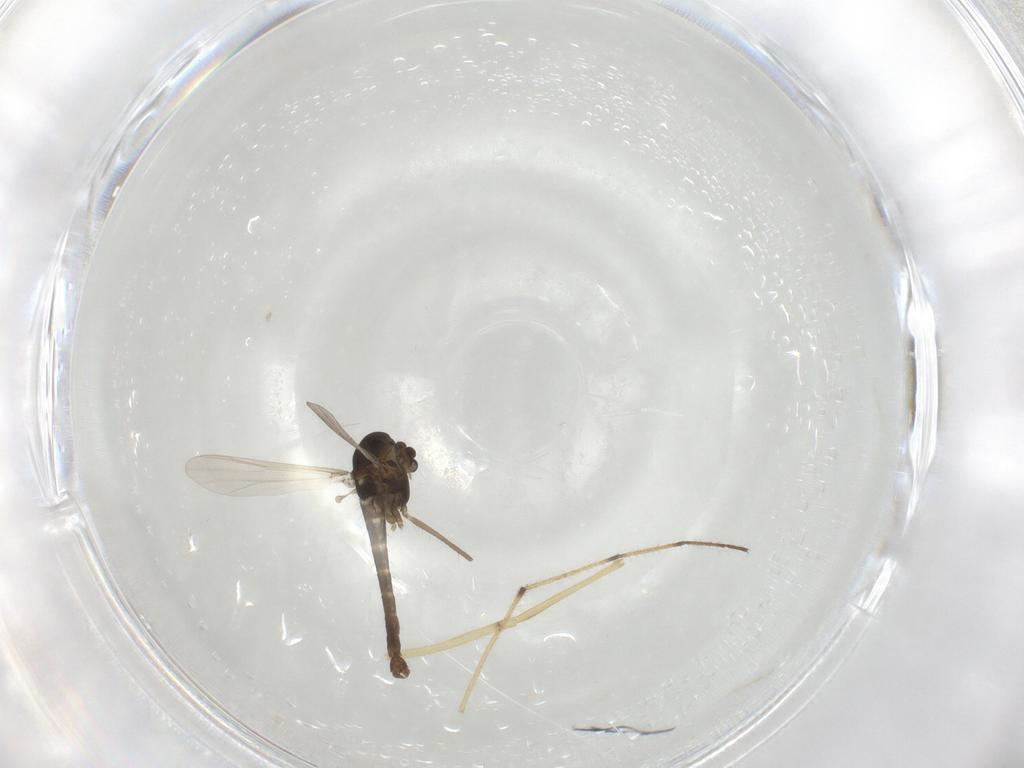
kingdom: Animalia
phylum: Arthropoda
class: Insecta
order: Diptera
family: Chironomidae
